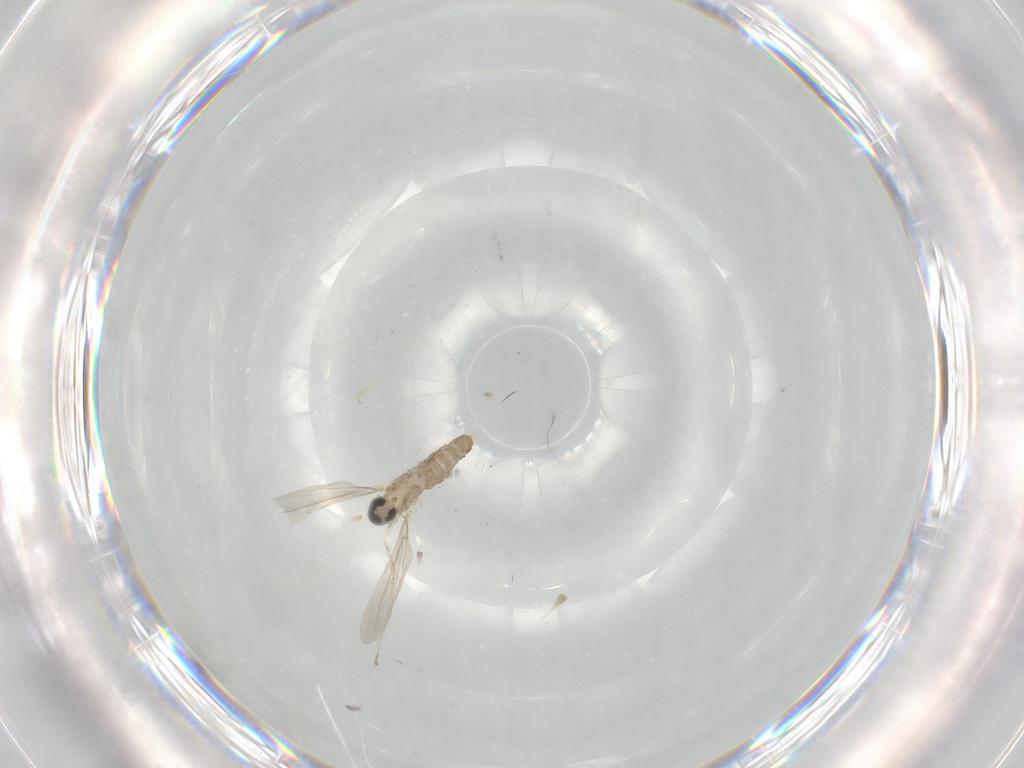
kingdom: Animalia
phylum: Arthropoda
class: Insecta
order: Diptera
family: Cecidomyiidae
